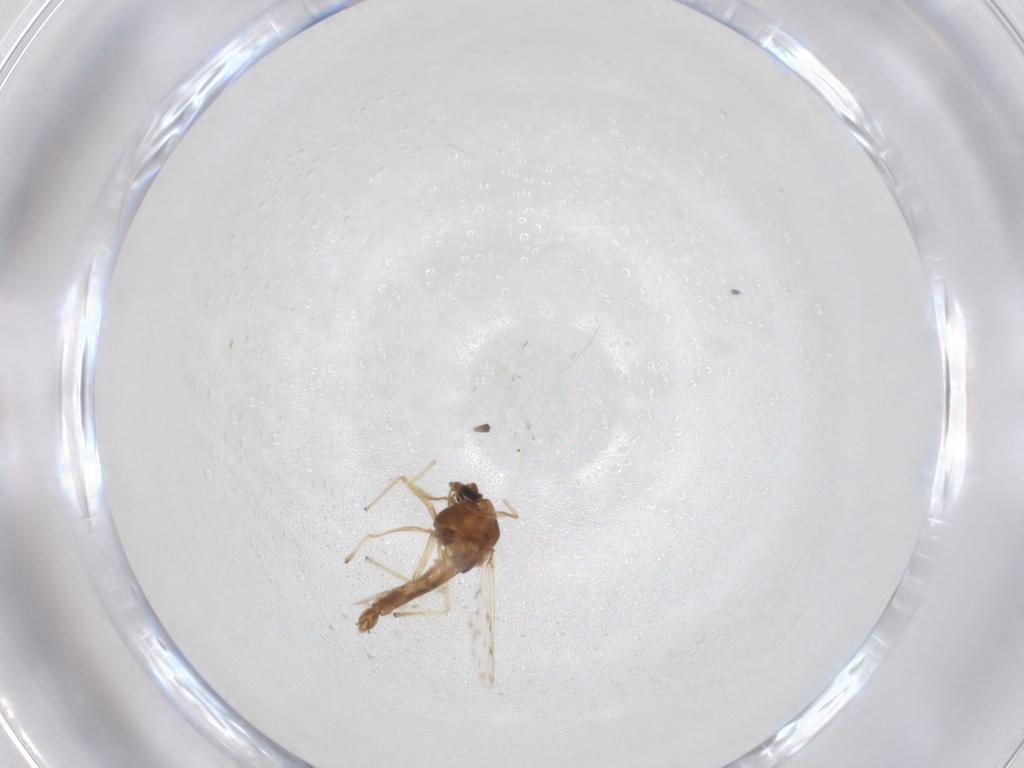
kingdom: Animalia
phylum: Arthropoda
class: Insecta
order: Diptera
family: Chironomidae
